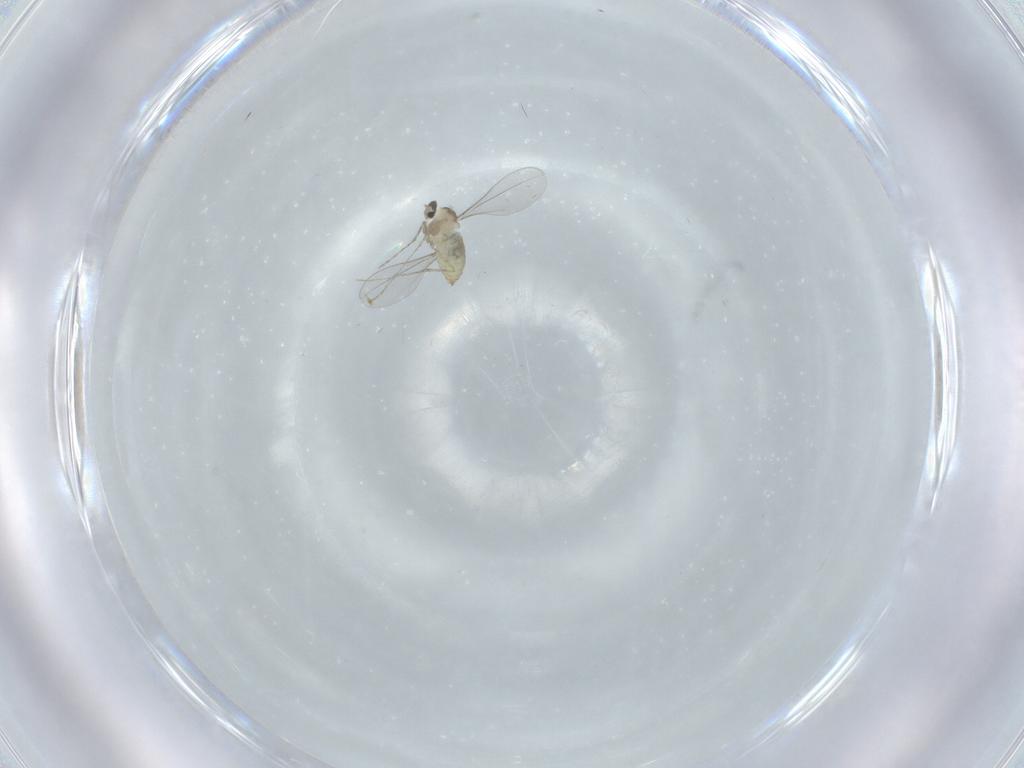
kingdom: Animalia
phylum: Arthropoda
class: Insecta
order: Diptera
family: Cecidomyiidae
